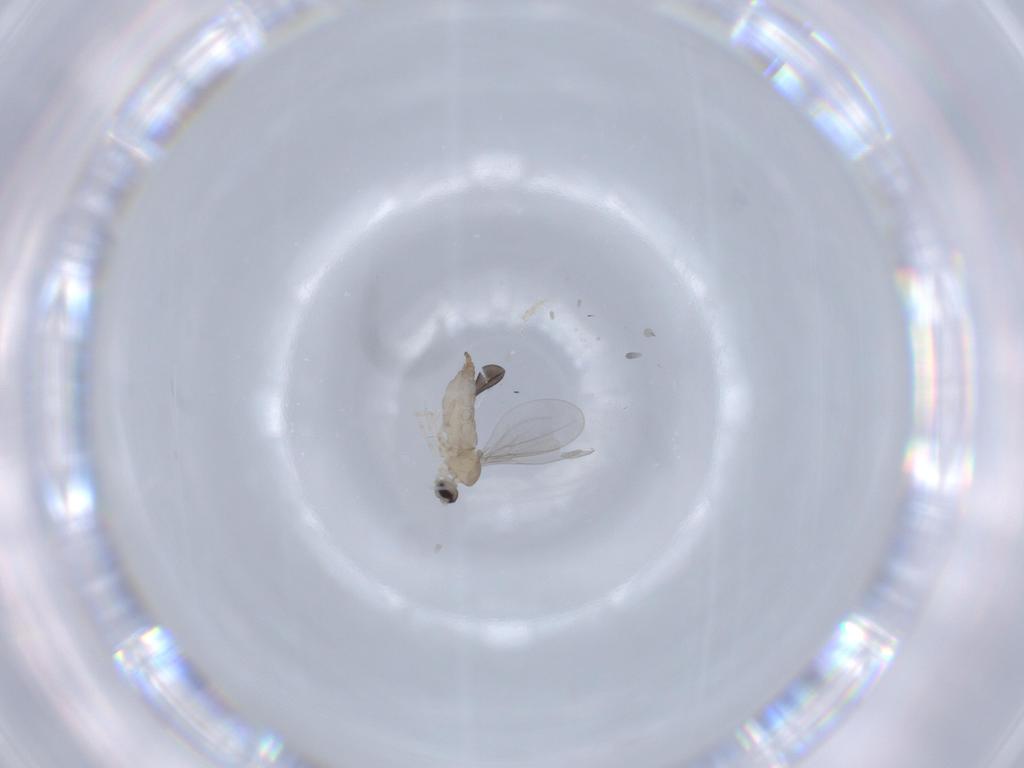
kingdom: Animalia
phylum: Arthropoda
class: Insecta
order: Diptera
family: Cecidomyiidae
